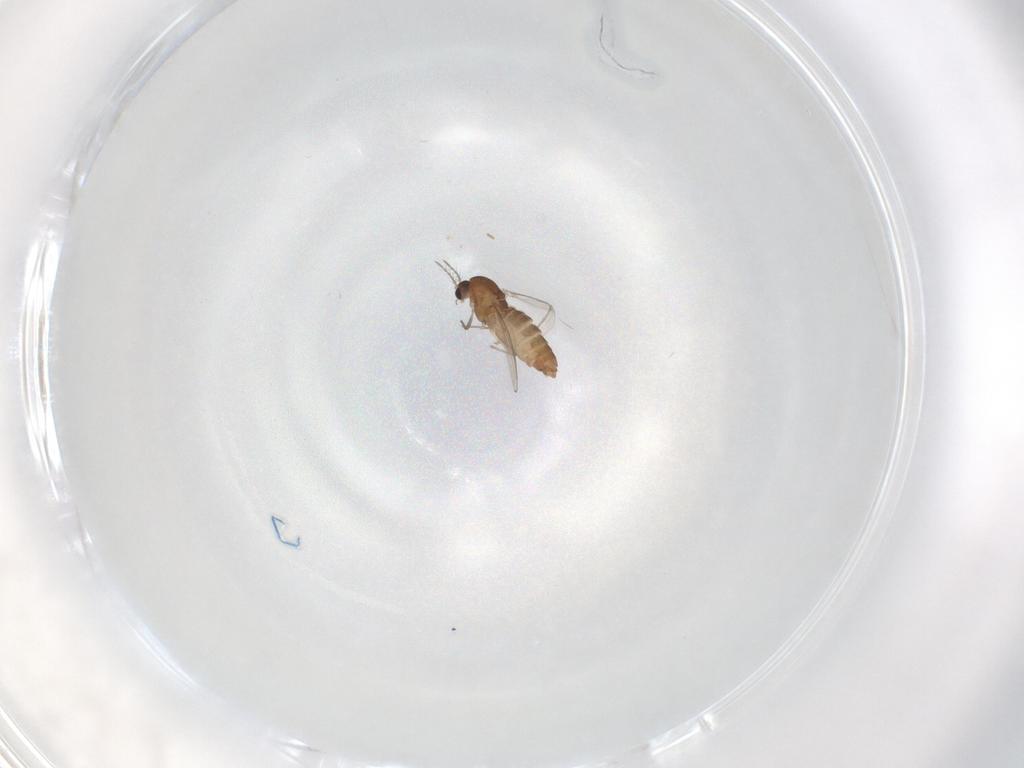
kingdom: Animalia
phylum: Arthropoda
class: Insecta
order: Diptera
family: Chironomidae
